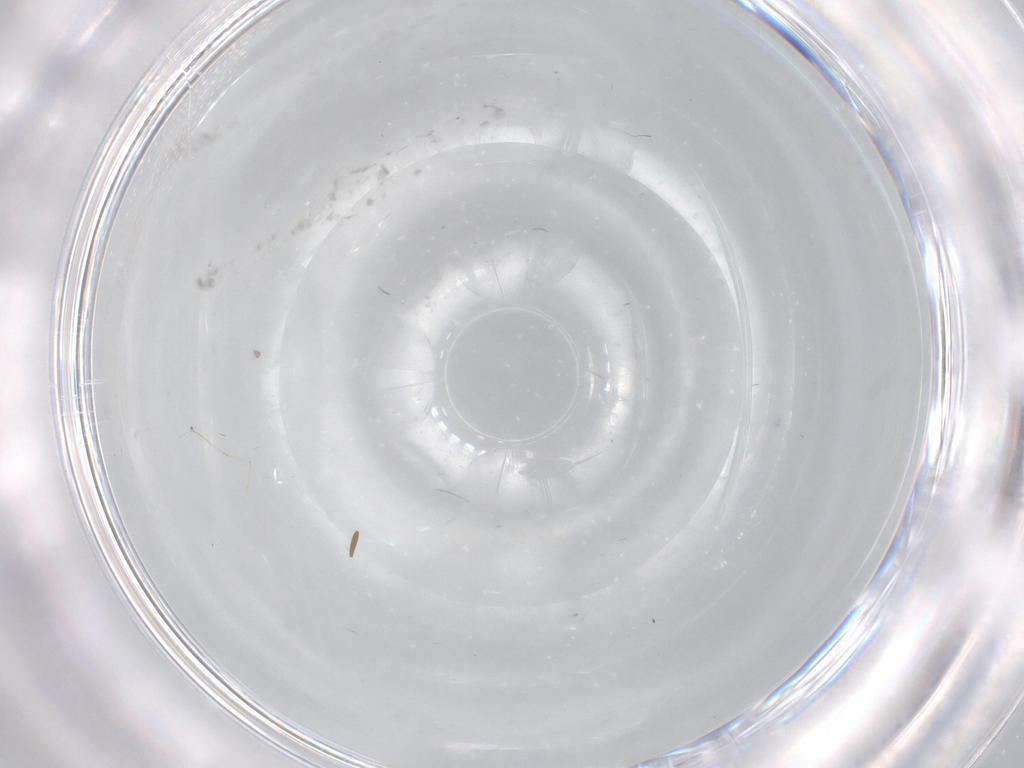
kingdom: Animalia
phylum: Arthropoda
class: Insecta
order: Diptera
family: Cecidomyiidae
